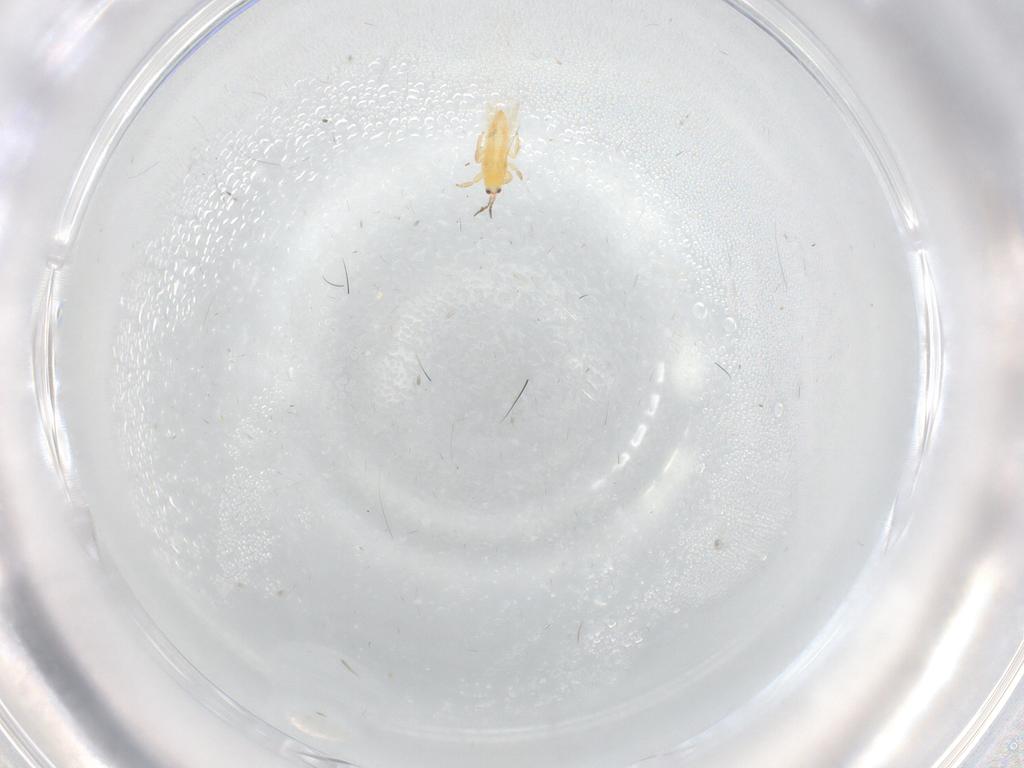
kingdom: Animalia
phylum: Arthropoda
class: Insecta
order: Thysanoptera
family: Melanthripidae
